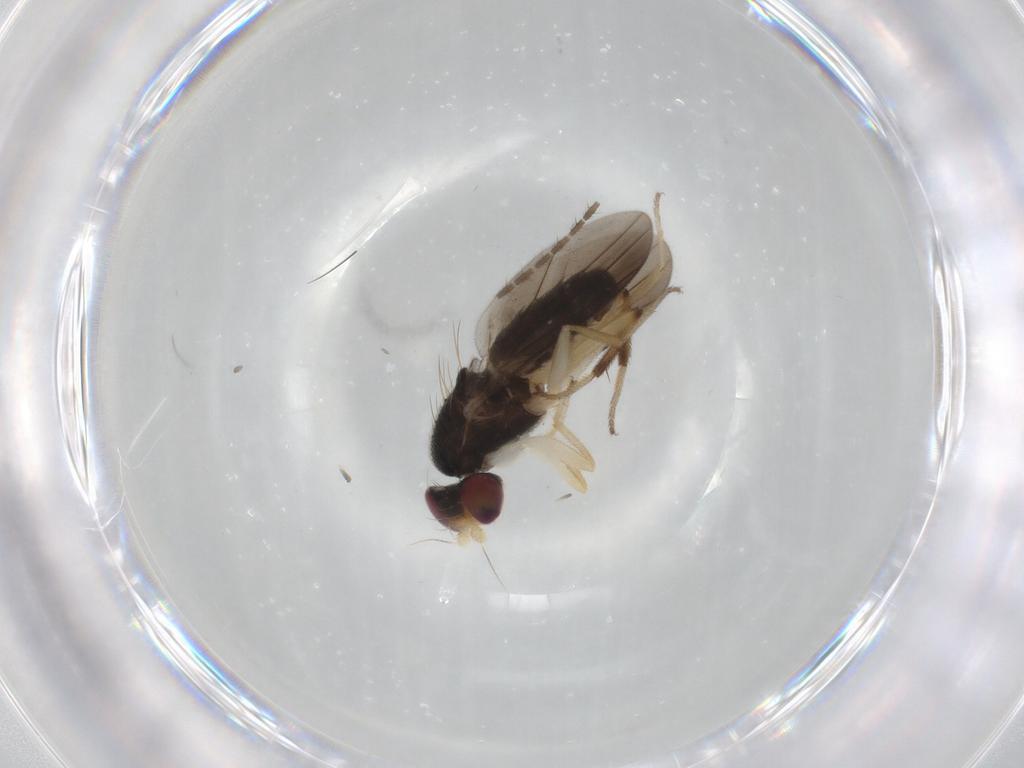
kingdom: Animalia
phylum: Arthropoda
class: Insecta
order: Diptera
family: Clusiidae
